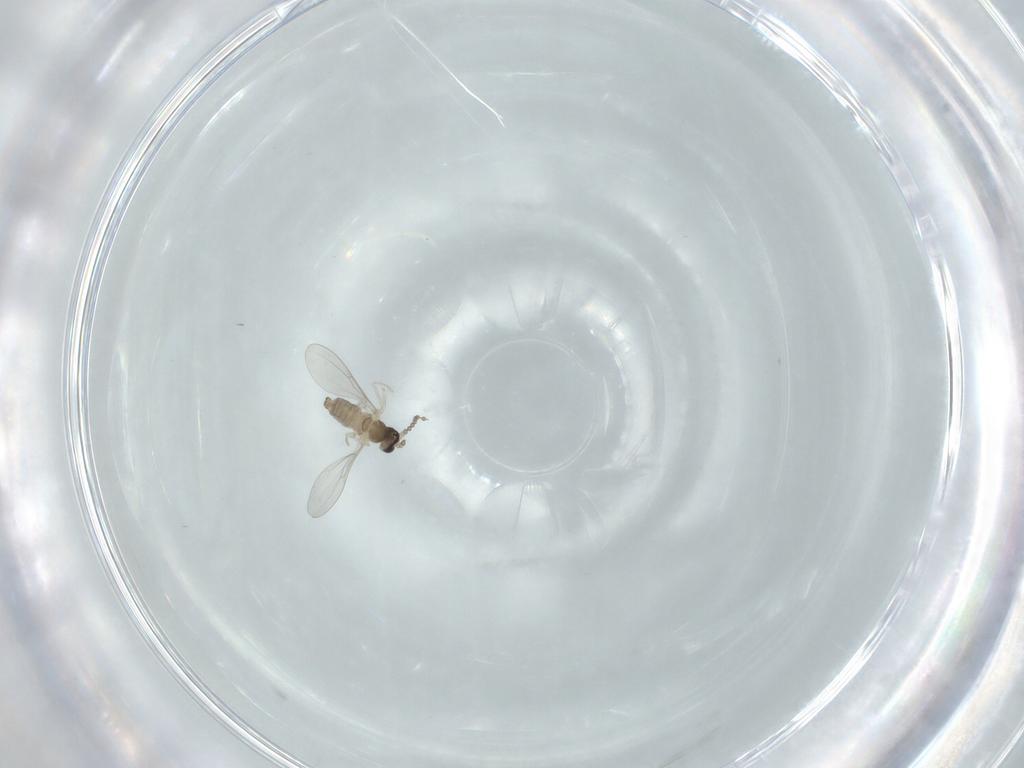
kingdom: Animalia
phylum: Arthropoda
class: Insecta
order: Diptera
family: Cecidomyiidae
